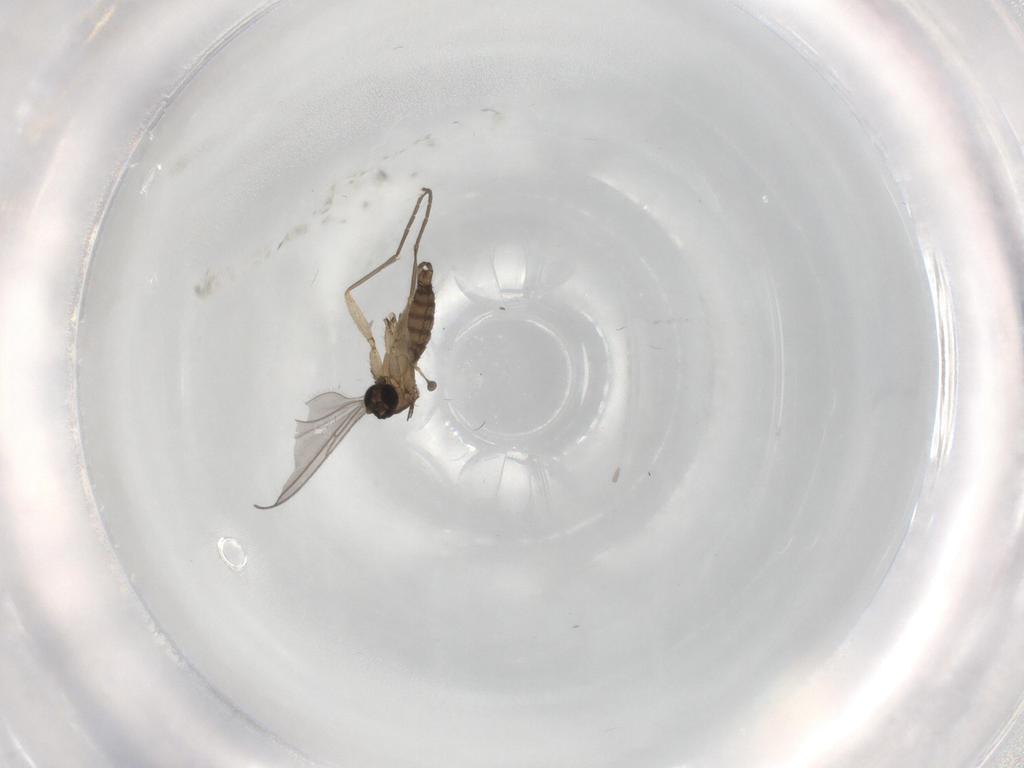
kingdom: Animalia
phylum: Arthropoda
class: Insecta
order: Diptera
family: Sciaridae
